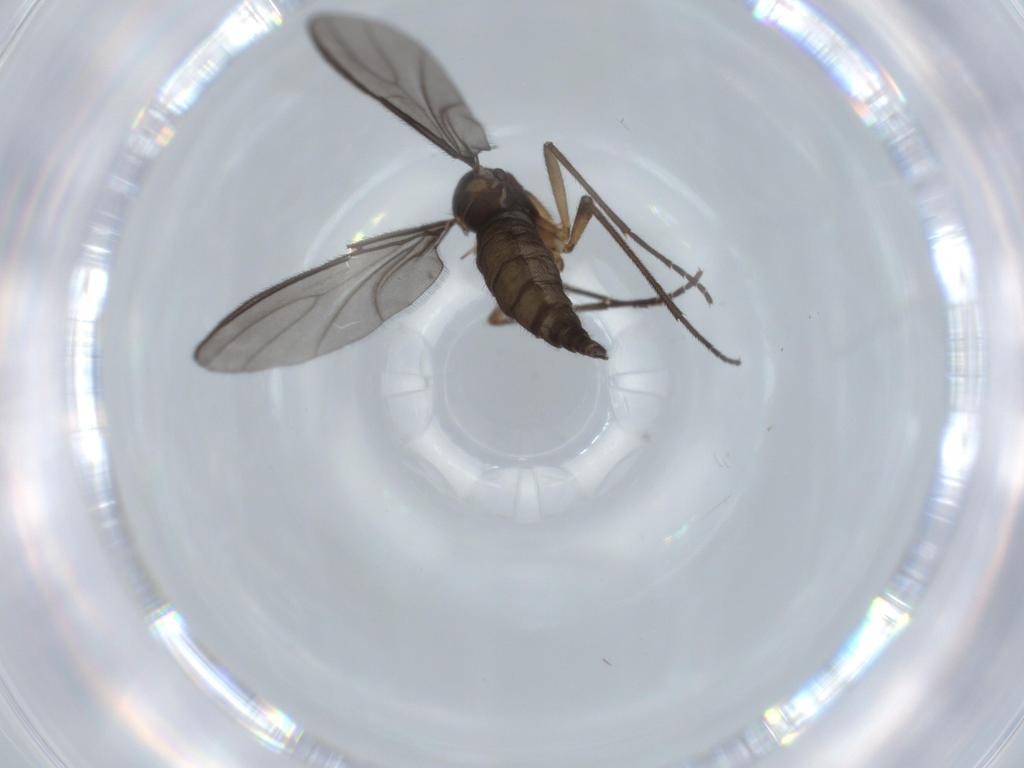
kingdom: Animalia
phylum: Arthropoda
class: Insecta
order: Diptera
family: Sciaridae
